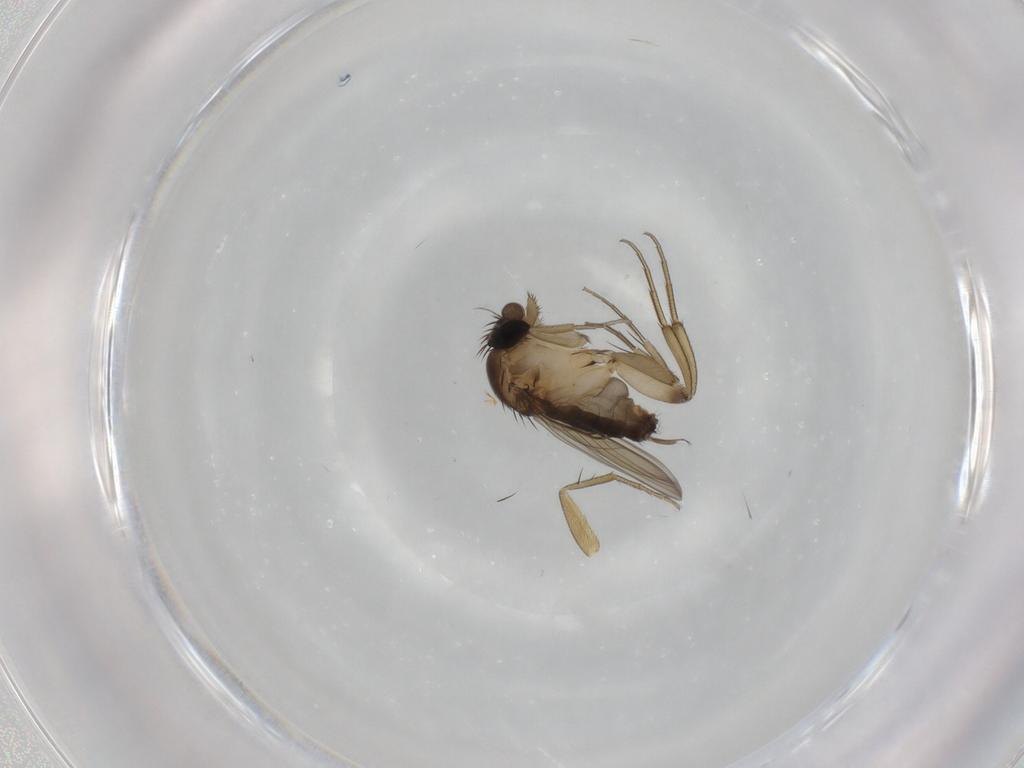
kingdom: Animalia
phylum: Arthropoda
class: Insecta
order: Diptera
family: Phoridae
